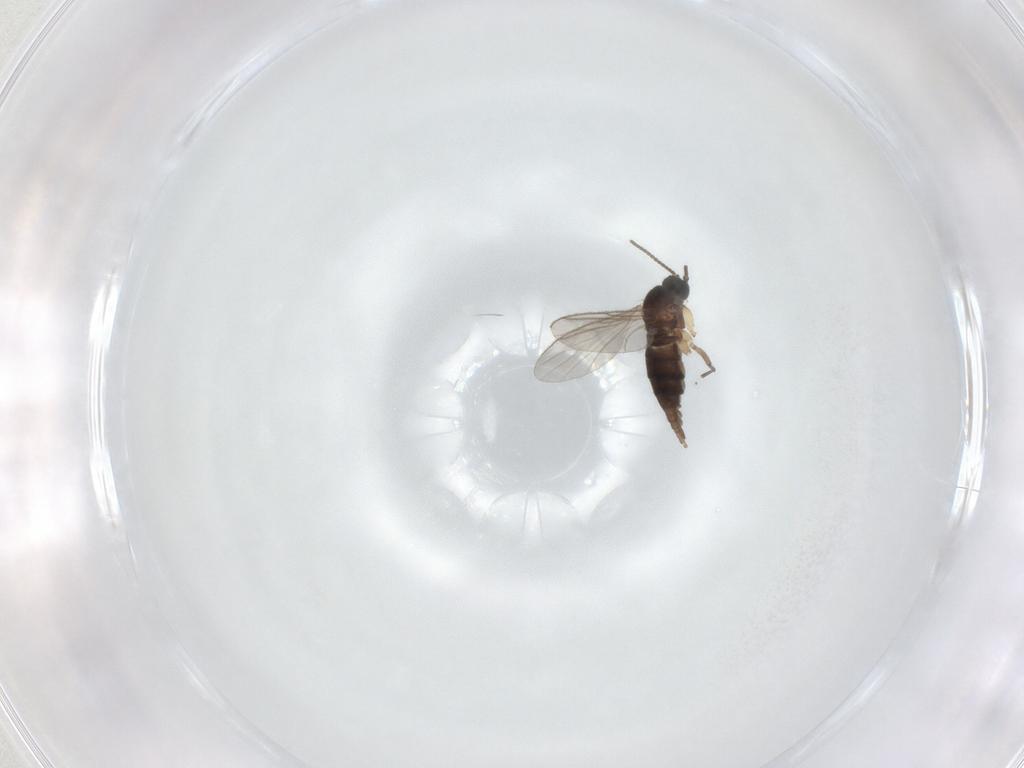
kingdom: Animalia
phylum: Arthropoda
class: Insecta
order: Diptera
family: Sciaridae
